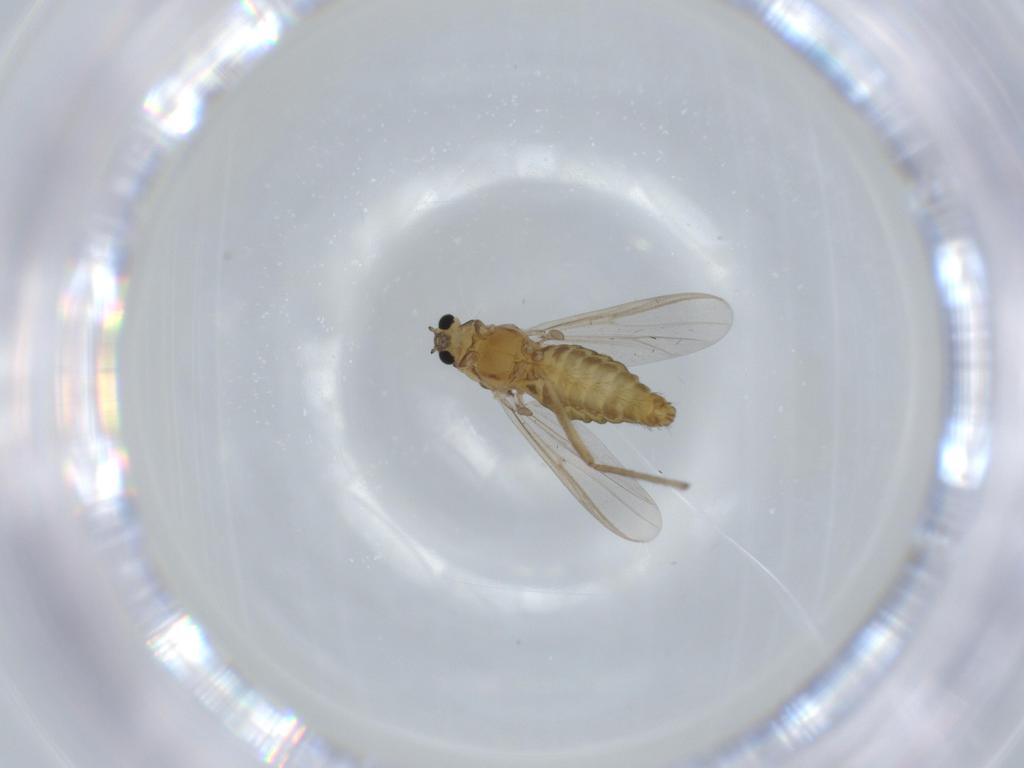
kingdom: Animalia
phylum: Arthropoda
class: Insecta
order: Diptera
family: Chironomidae
